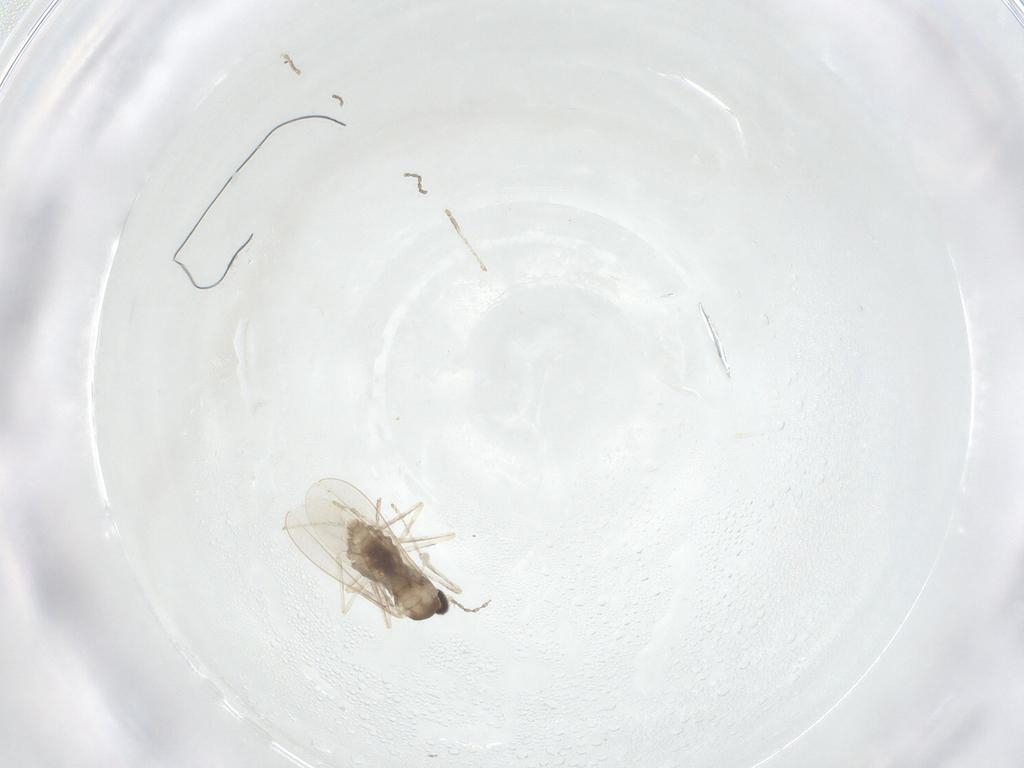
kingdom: Animalia
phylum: Arthropoda
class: Insecta
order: Diptera
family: Cecidomyiidae
